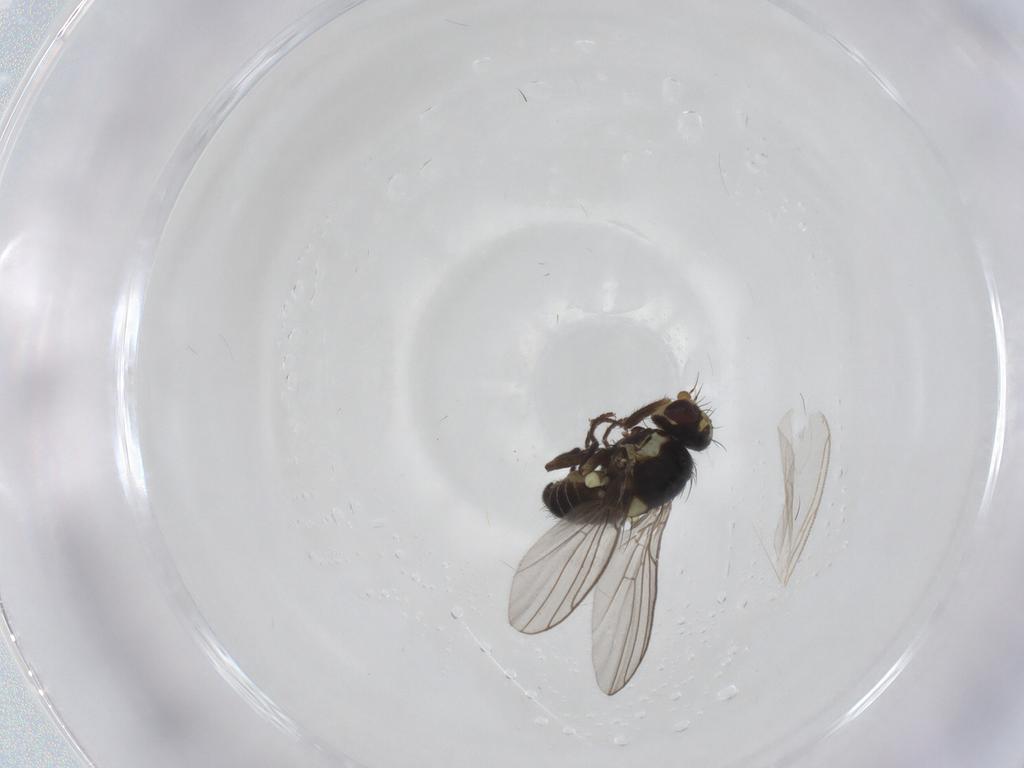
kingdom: Animalia
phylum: Arthropoda
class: Insecta
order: Diptera
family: Agromyzidae
